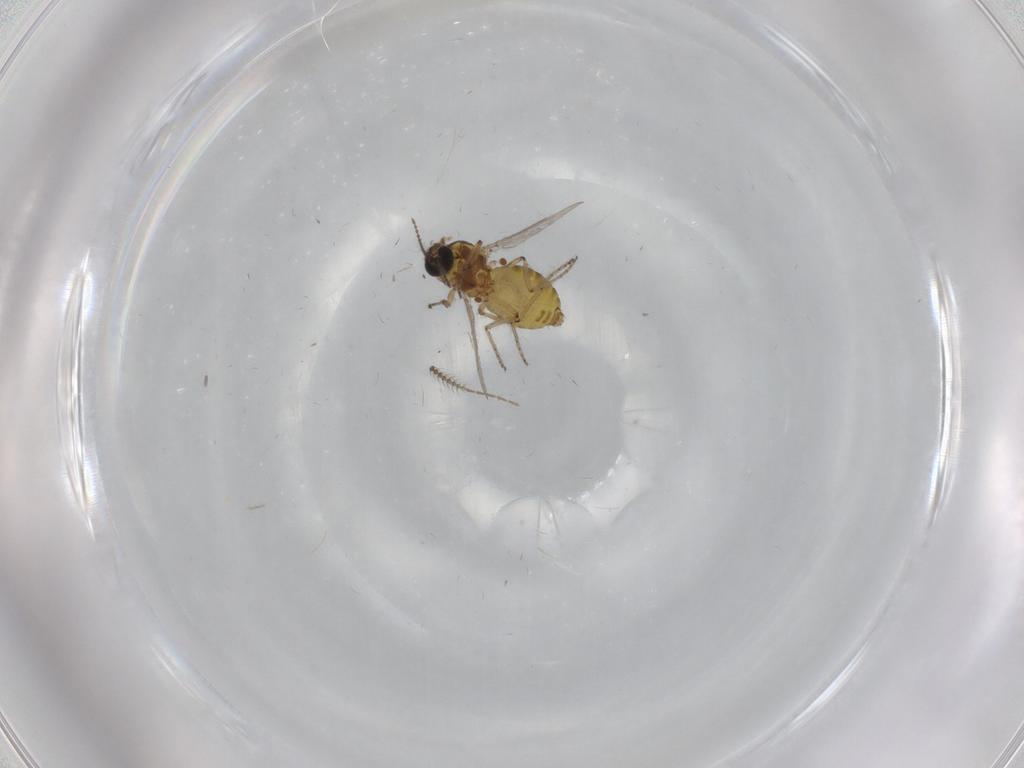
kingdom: Animalia
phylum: Arthropoda
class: Insecta
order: Diptera
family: Ceratopogonidae
